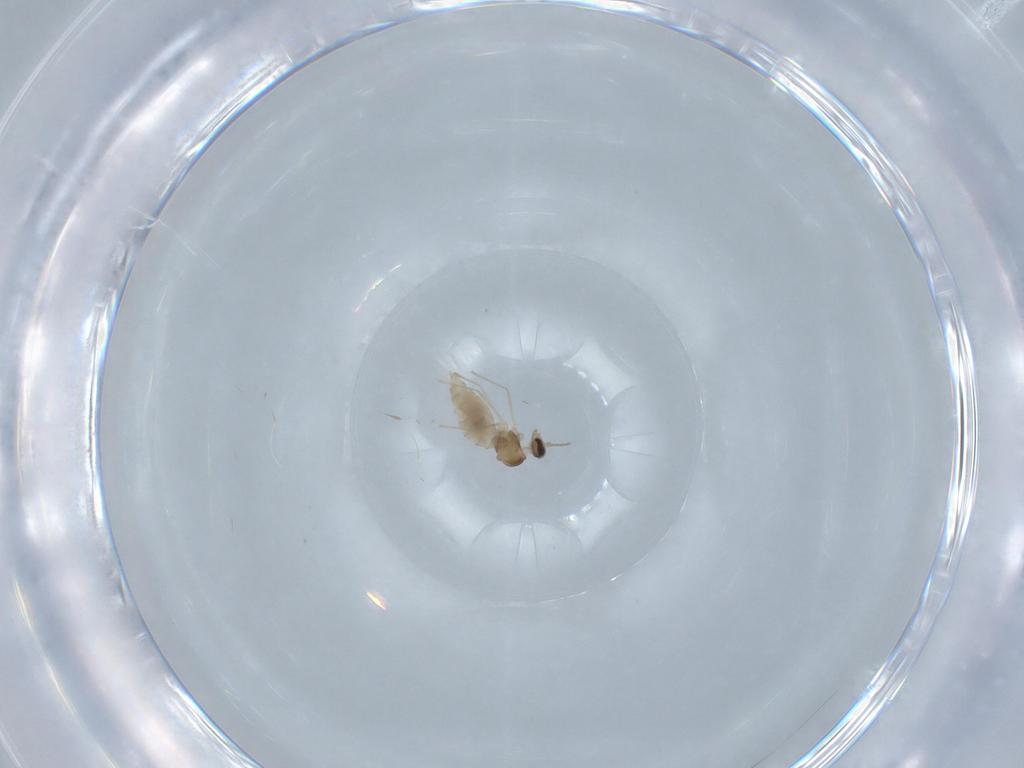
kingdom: Animalia
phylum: Arthropoda
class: Insecta
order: Diptera
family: Cecidomyiidae
